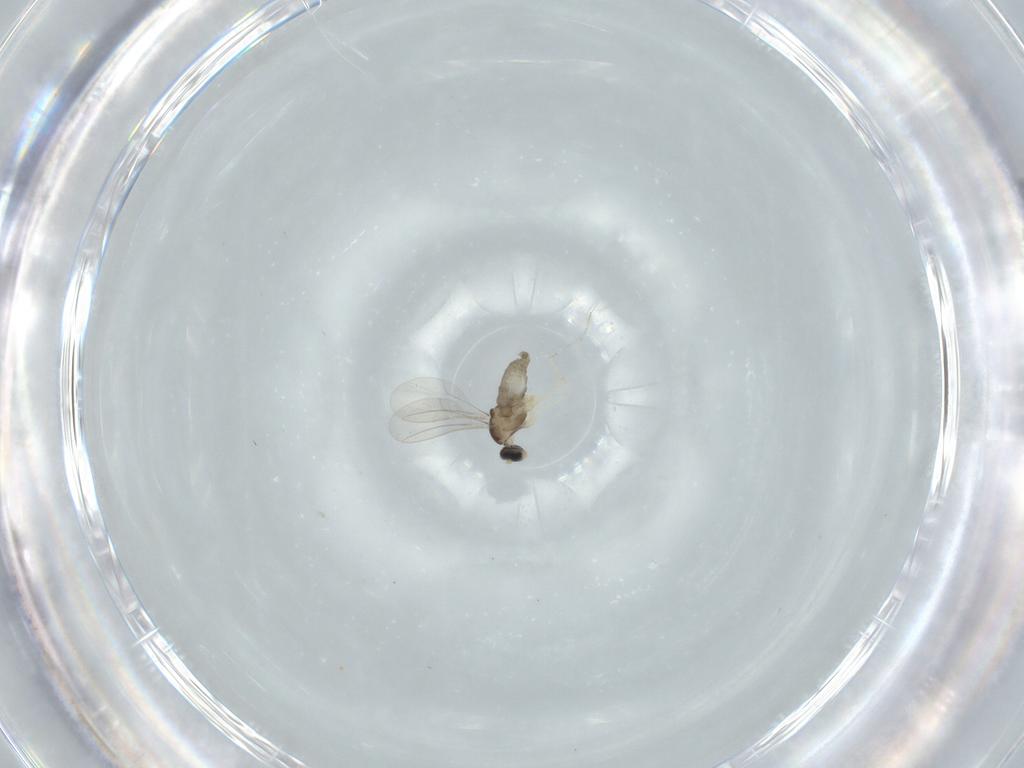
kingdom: Animalia
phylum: Arthropoda
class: Insecta
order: Diptera
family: Cecidomyiidae
